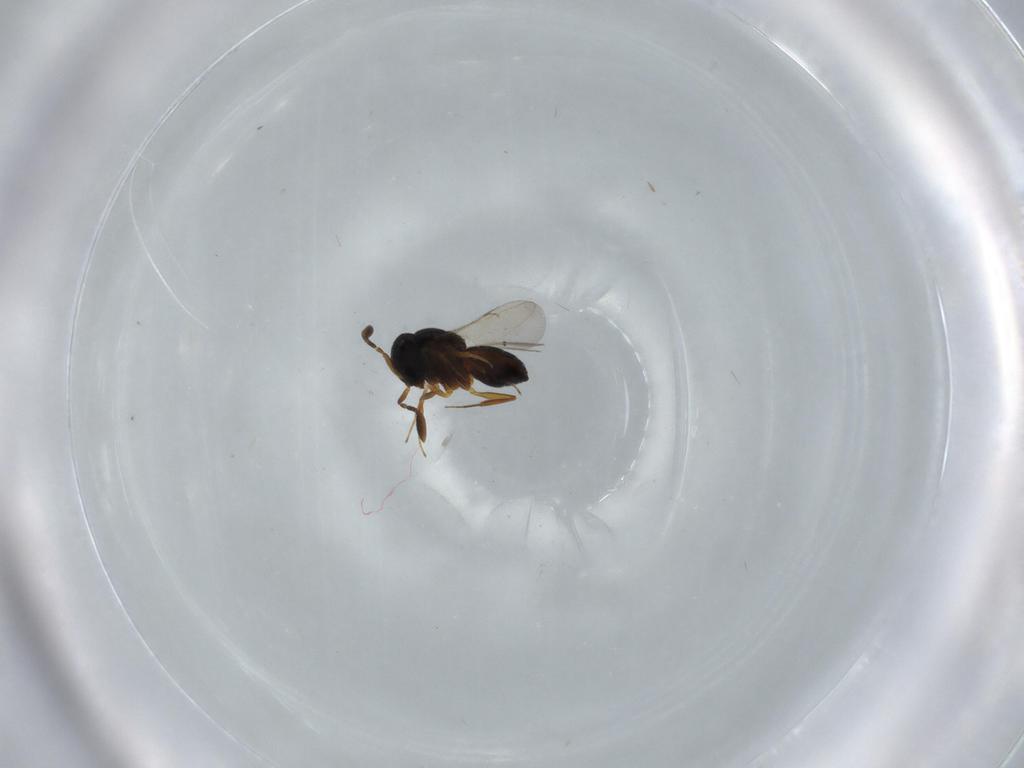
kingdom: Animalia
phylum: Arthropoda
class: Insecta
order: Hymenoptera
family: Scelionidae
